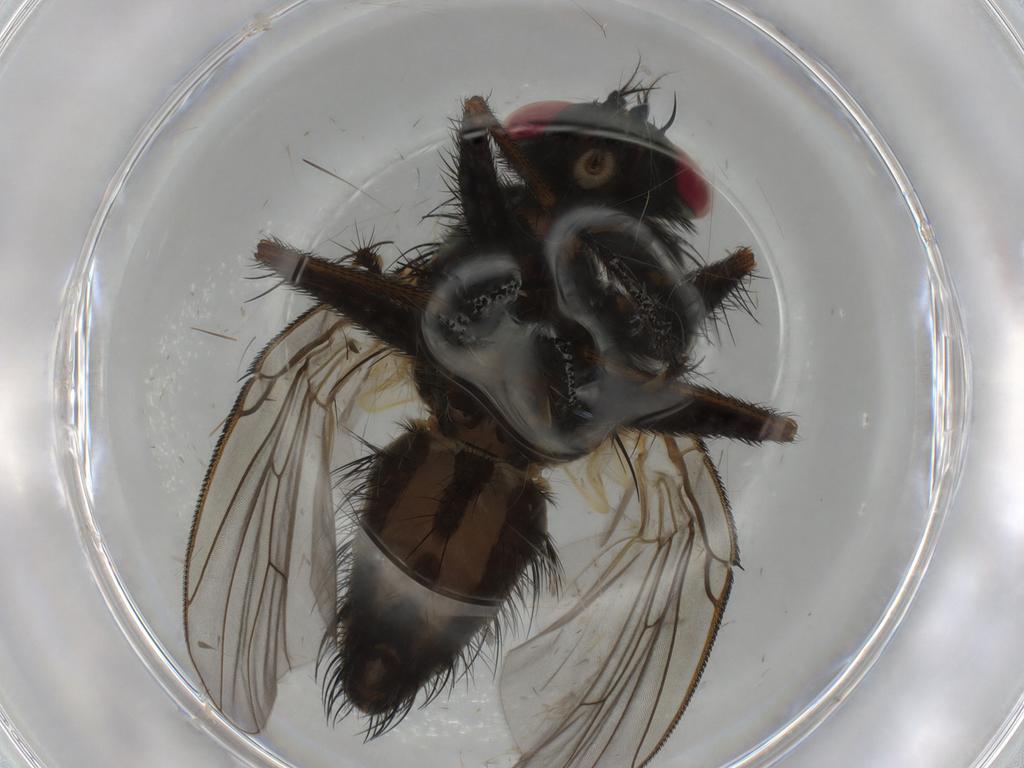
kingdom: Animalia
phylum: Arthropoda
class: Insecta
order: Diptera
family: Muscidae
